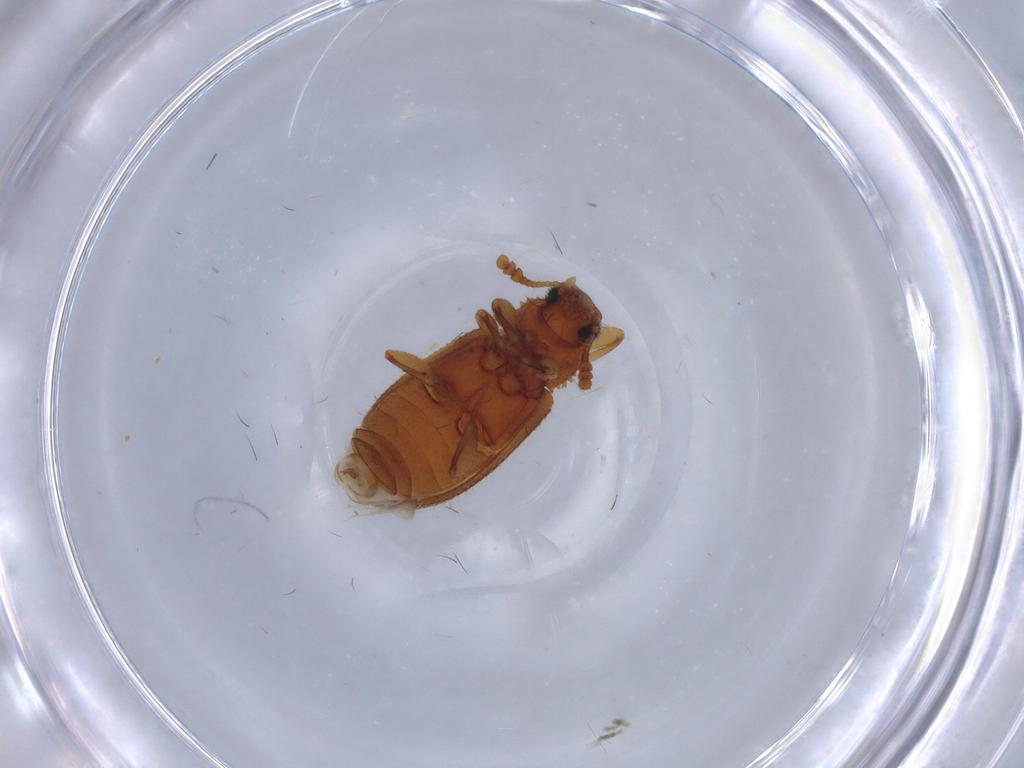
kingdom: Animalia
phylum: Arthropoda
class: Insecta
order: Coleoptera
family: Tenebrionidae
